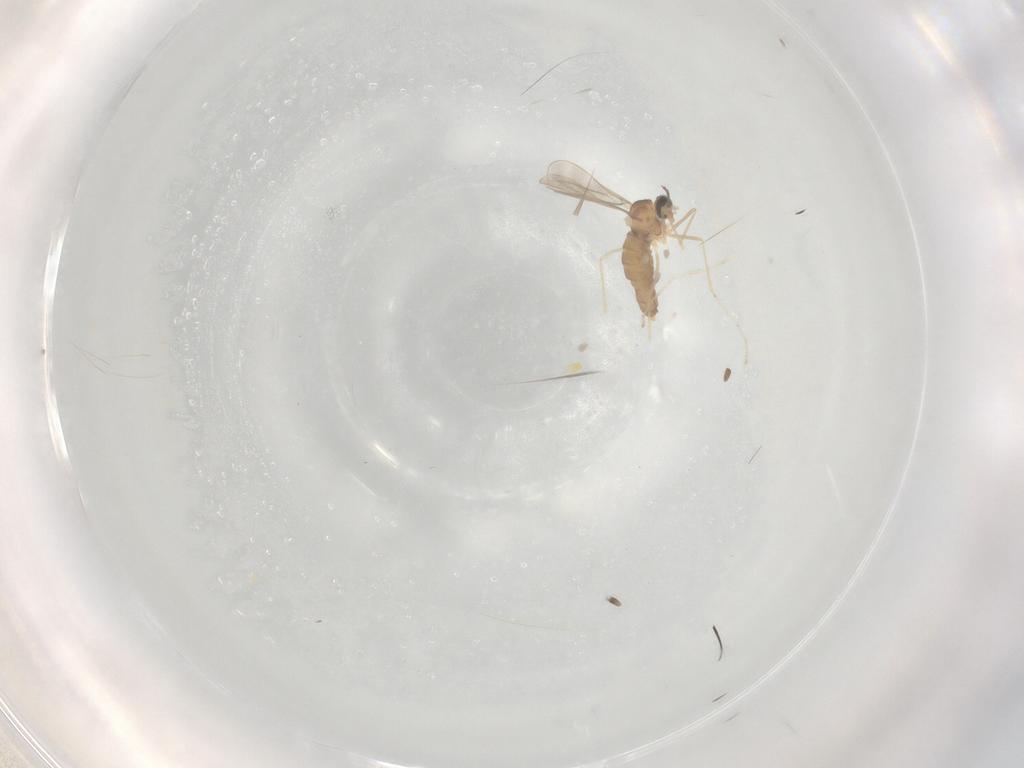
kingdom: Animalia
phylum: Arthropoda
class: Insecta
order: Diptera
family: Cecidomyiidae
